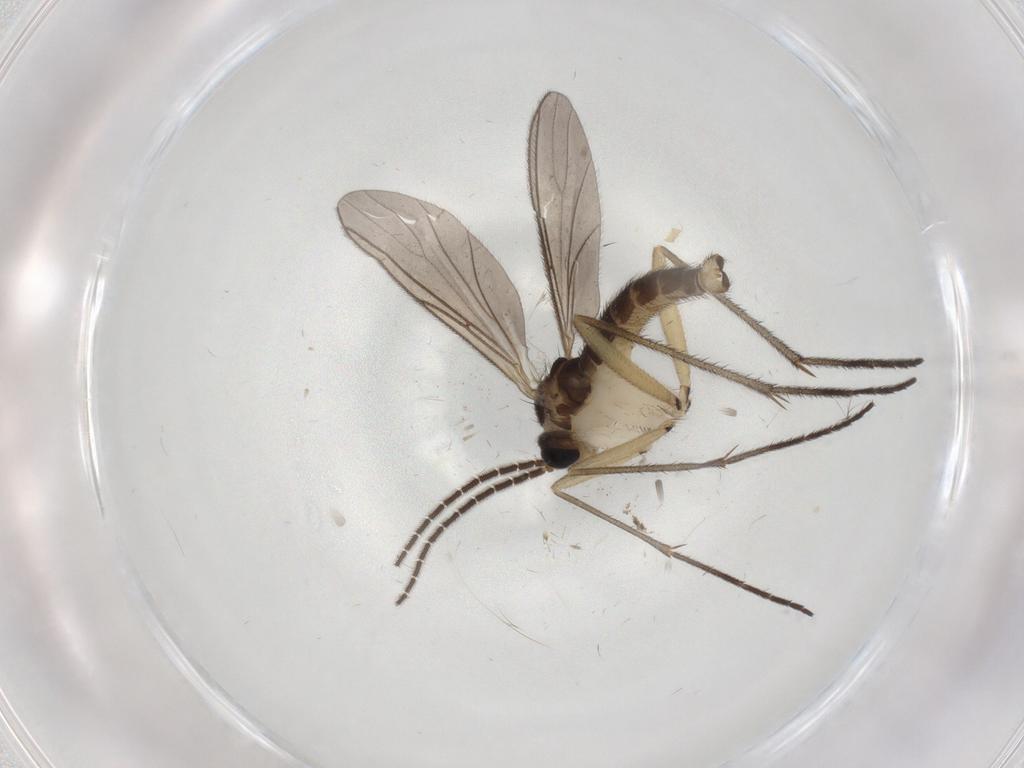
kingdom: Animalia
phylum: Arthropoda
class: Insecta
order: Diptera
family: Sciaridae
